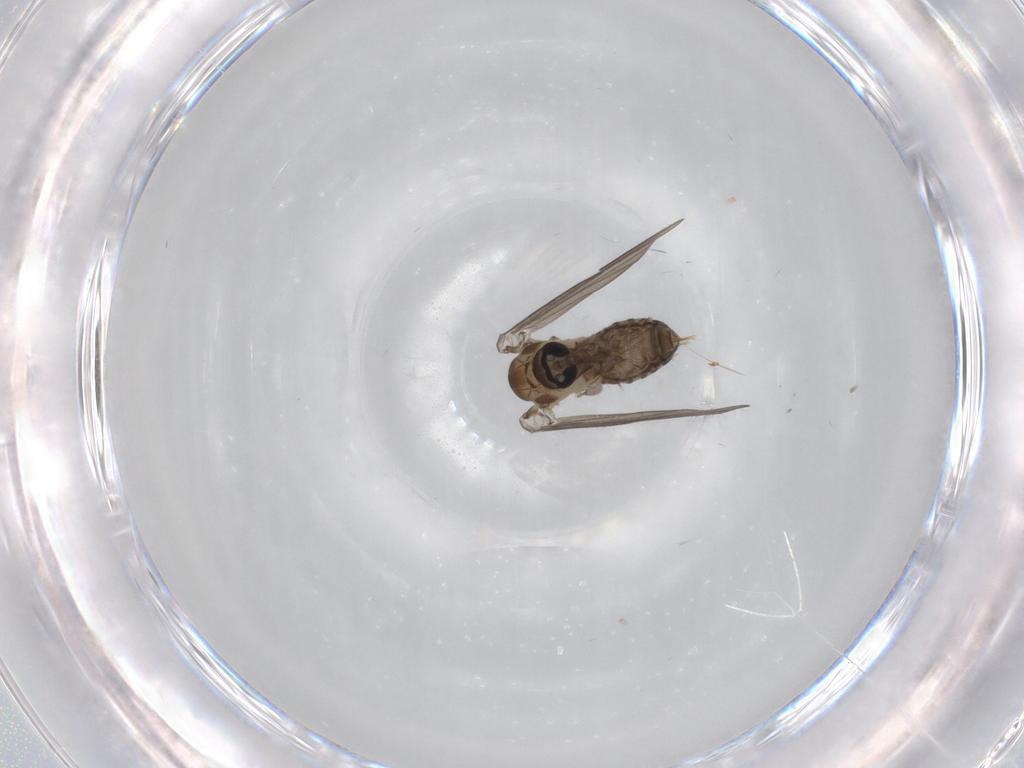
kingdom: Animalia
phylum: Arthropoda
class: Insecta
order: Diptera
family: Psychodidae
